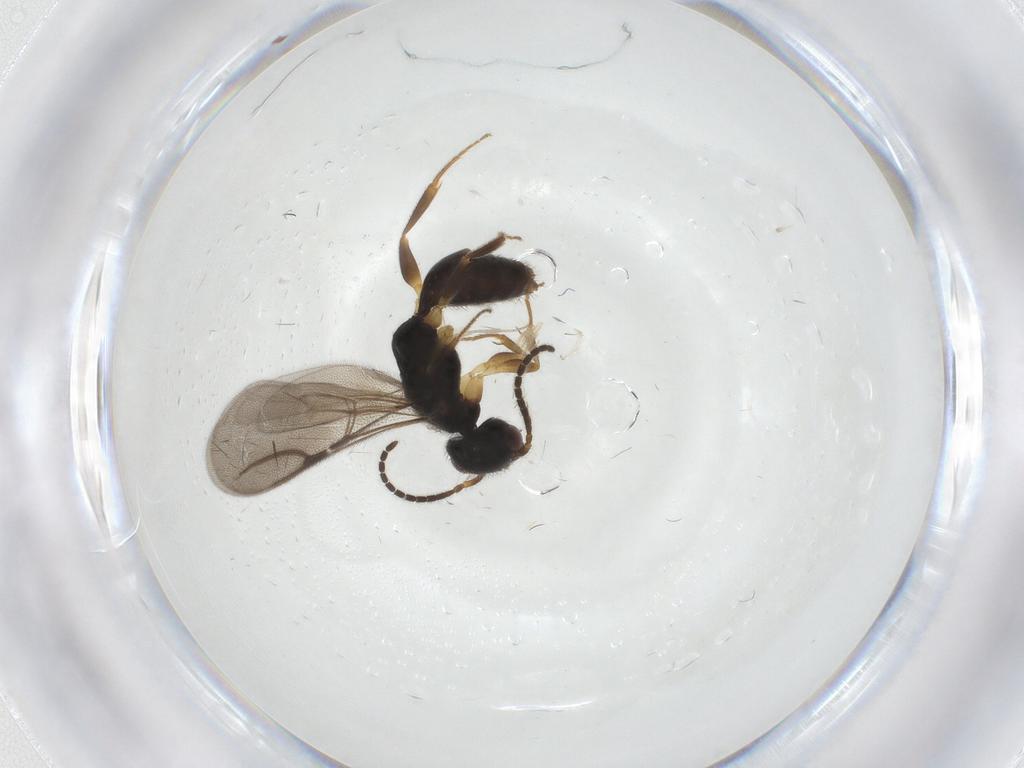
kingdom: Animalia
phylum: Arthropoda
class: Insecta
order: Hymenoptera
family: Bethylidae
